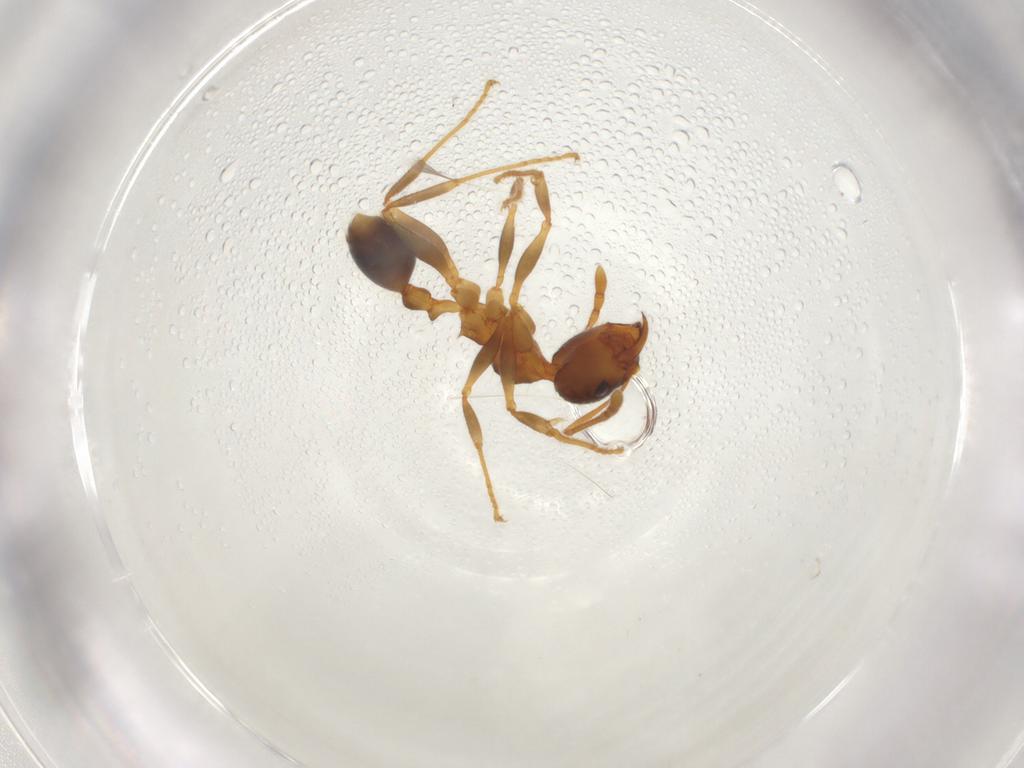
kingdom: Animalia
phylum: Arthropoda
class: Insecta
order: Hymenoptera
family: Formicidae
